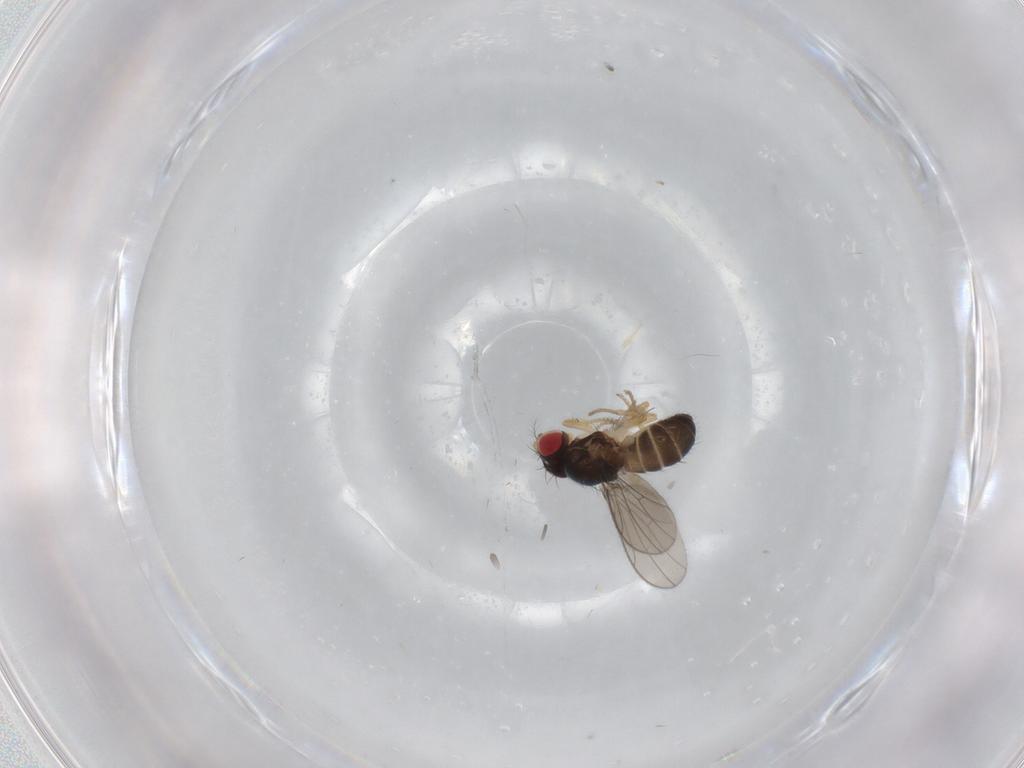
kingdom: Animalia
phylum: Arthropoda
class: Insecta
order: Diptera
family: Drosophilidae
